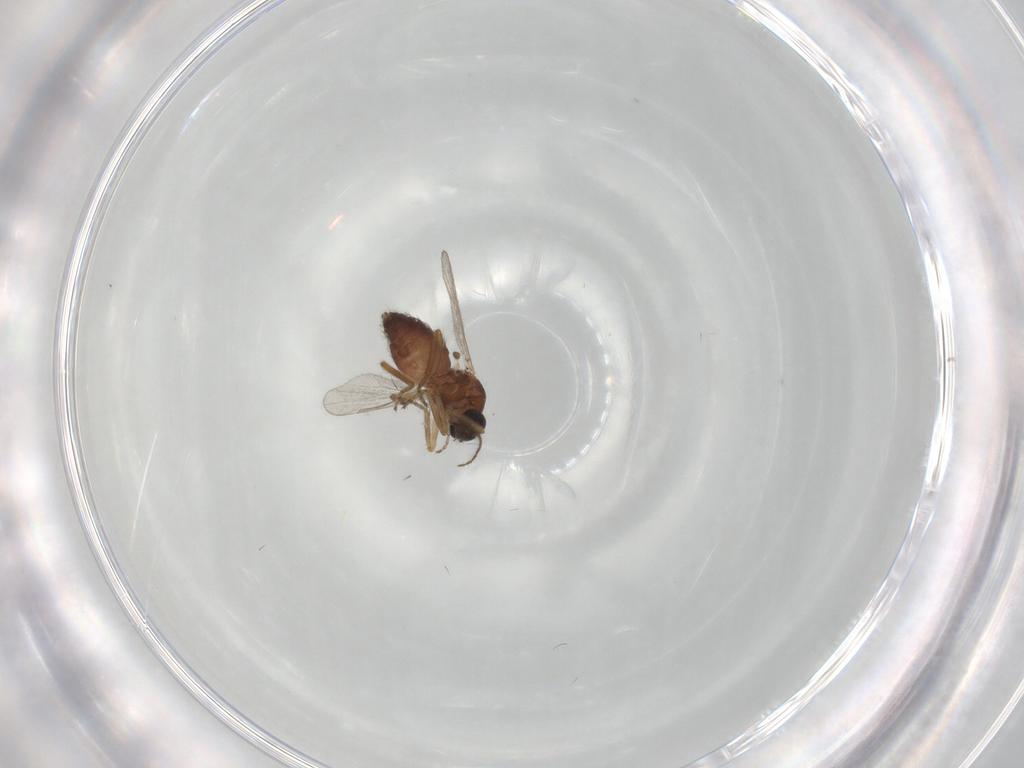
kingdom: Animalia
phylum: Arthropoda
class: Insecta
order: Diptera
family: Ceratopogonidae
